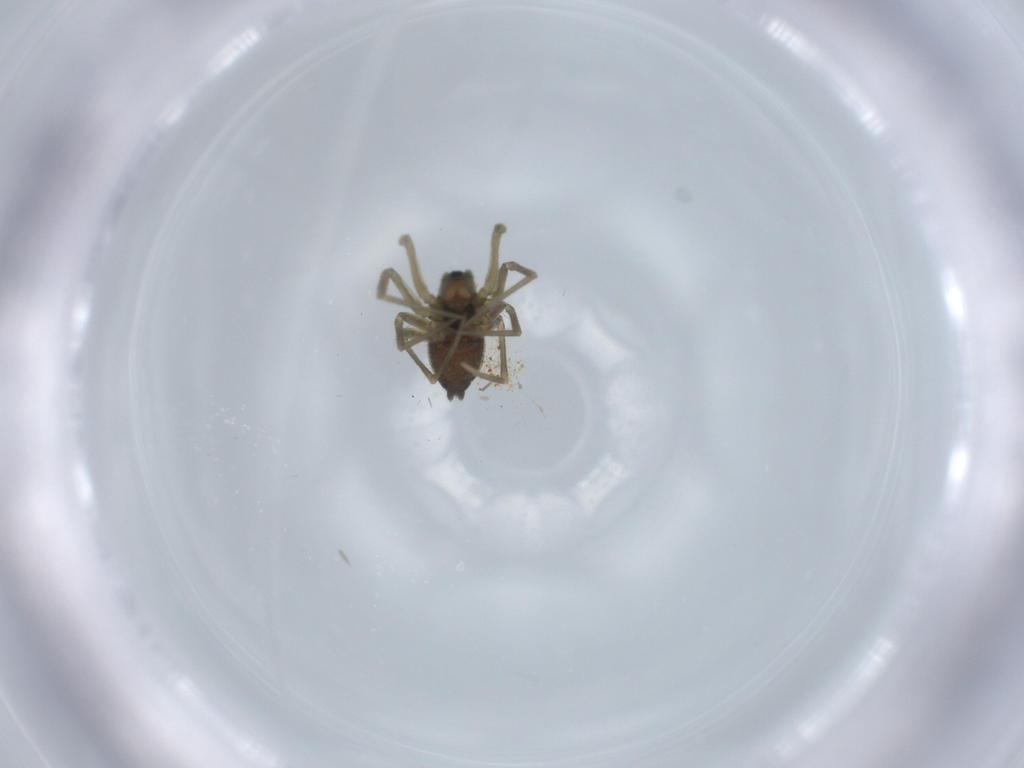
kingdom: Animalia
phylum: Arthropoda
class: Arachnida
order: Araneae
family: Linyphiidae
